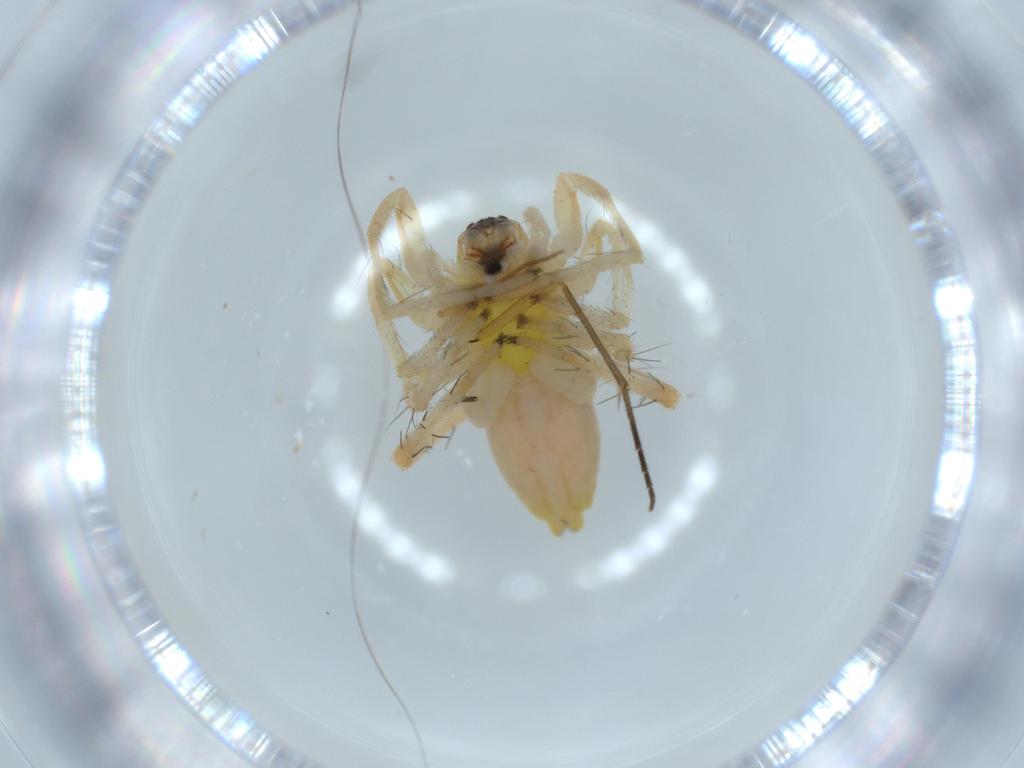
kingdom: Animalia
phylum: Arthropoda
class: Arachnida
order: Araneae
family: Anyphaenidae
